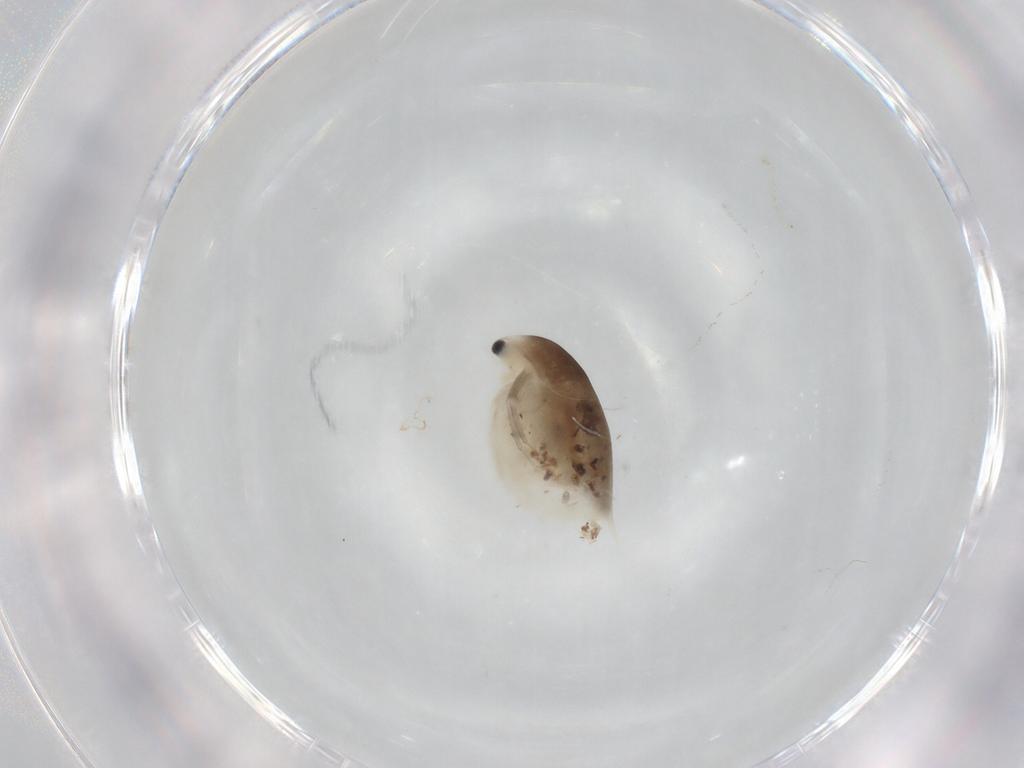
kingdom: Animalia
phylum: Arthropoda
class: Branchiopoda
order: Diplostraca
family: Daphniidae
